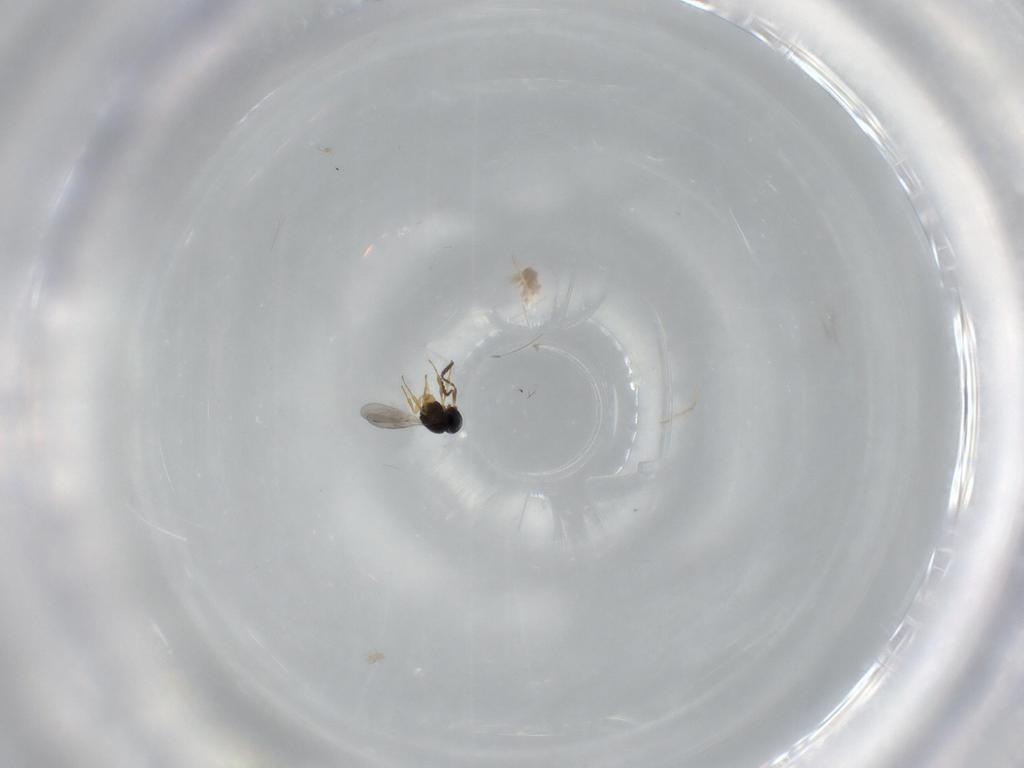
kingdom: Animalia
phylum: Arthropoda
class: Insecta
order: Hymenoptera
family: Scelionidae
